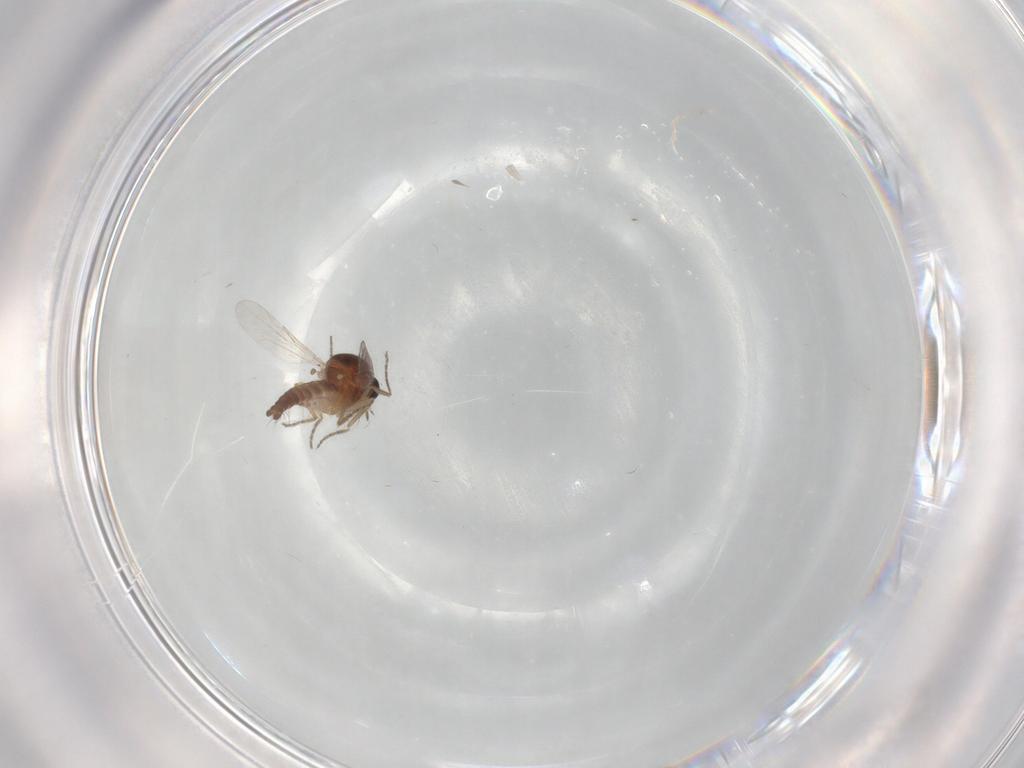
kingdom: Animalia
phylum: Arthropoda
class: Insecta
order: Diptera
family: Ceratopogonidae
